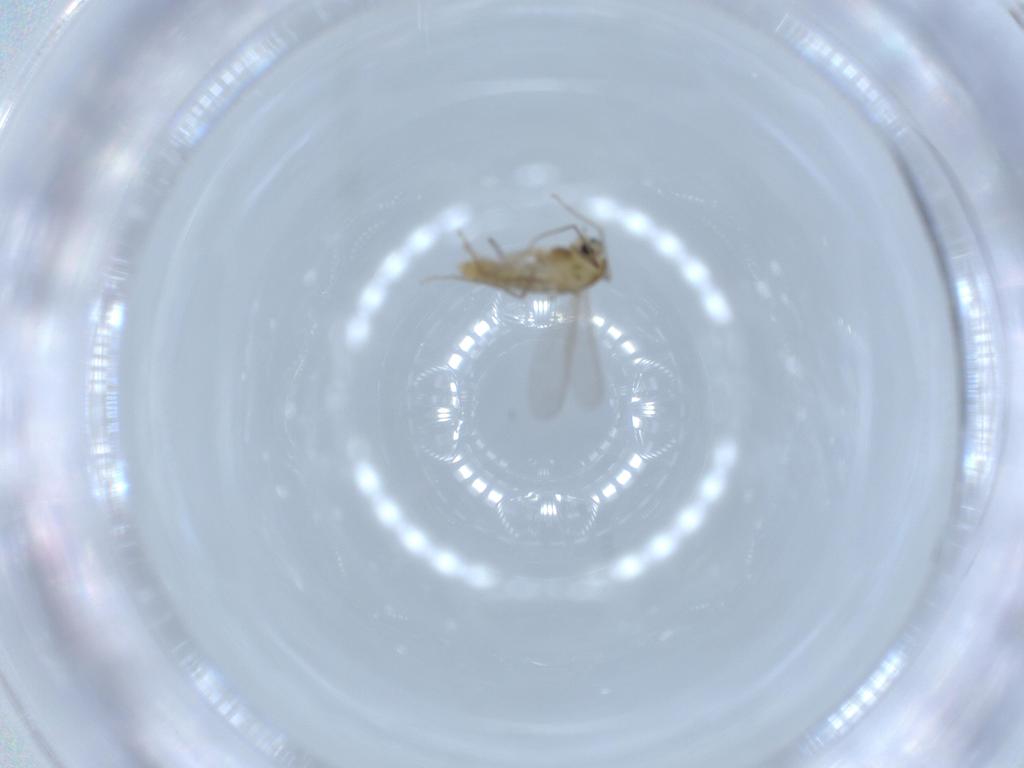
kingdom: Animalia
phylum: Arthropoda
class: Insecta
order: Diptera
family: Chironomidae
